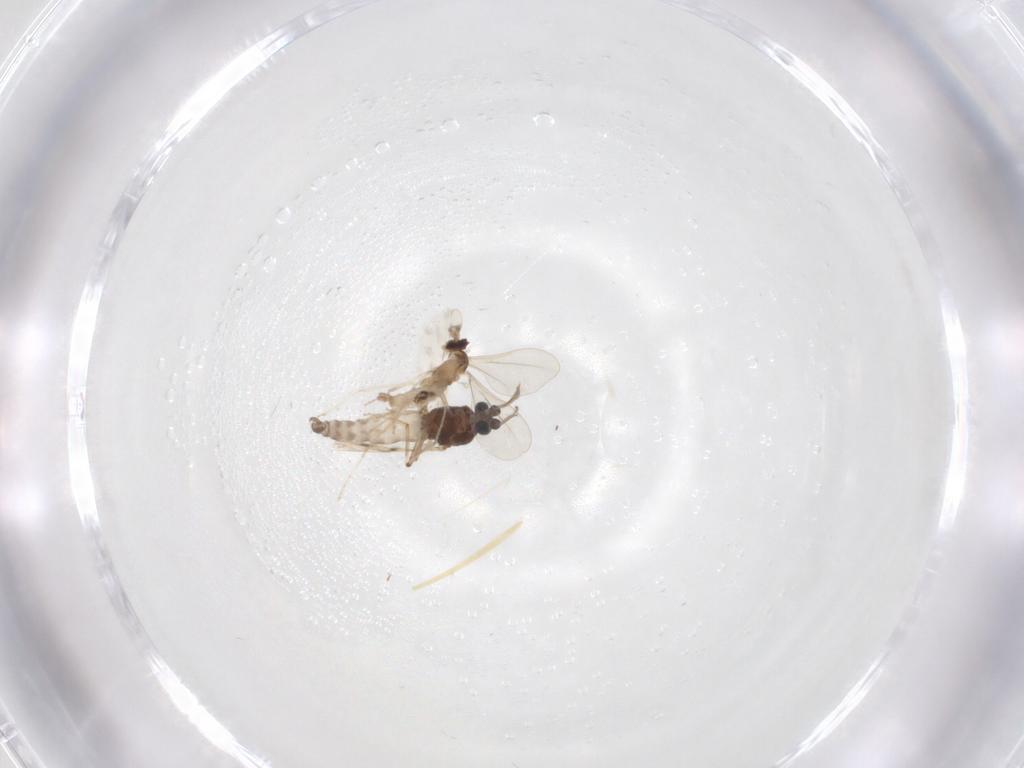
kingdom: Animalia
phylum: Arthropoda
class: Insecta
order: Diptera
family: Cecidomyiidae
